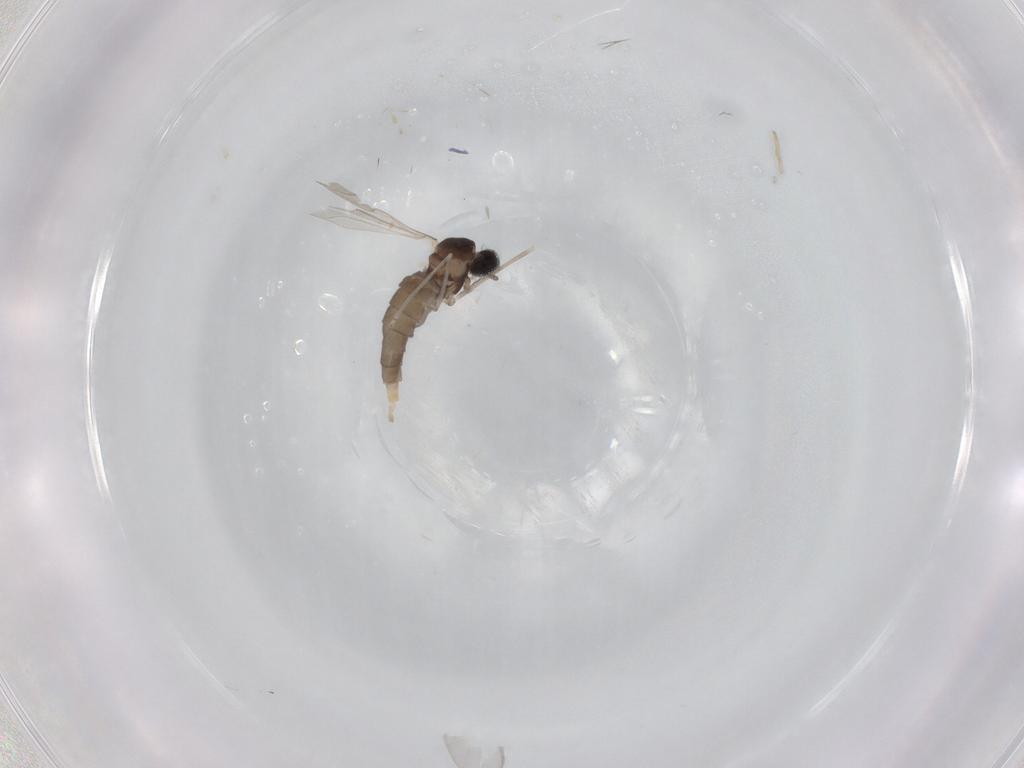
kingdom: Animalia
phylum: Arthropoda
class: Insecta
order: Diptera
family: Cecidomyiidae
